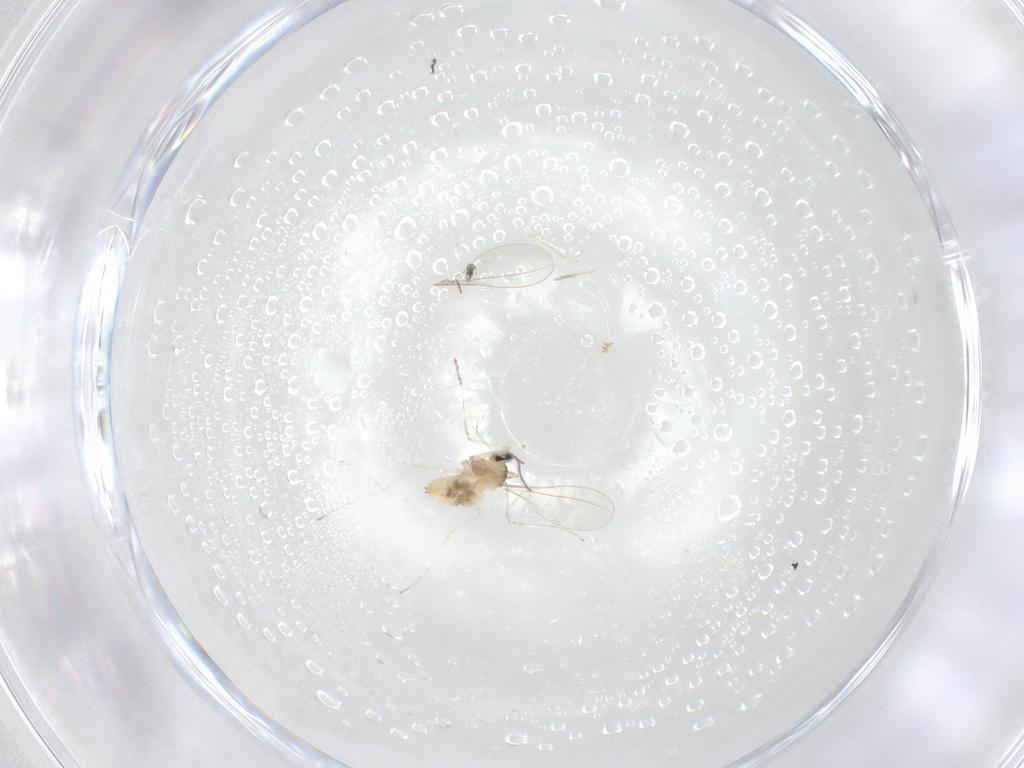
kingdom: Animalia
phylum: Arthropoda
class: Insecta
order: Diptera
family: Cecidomyiidae
